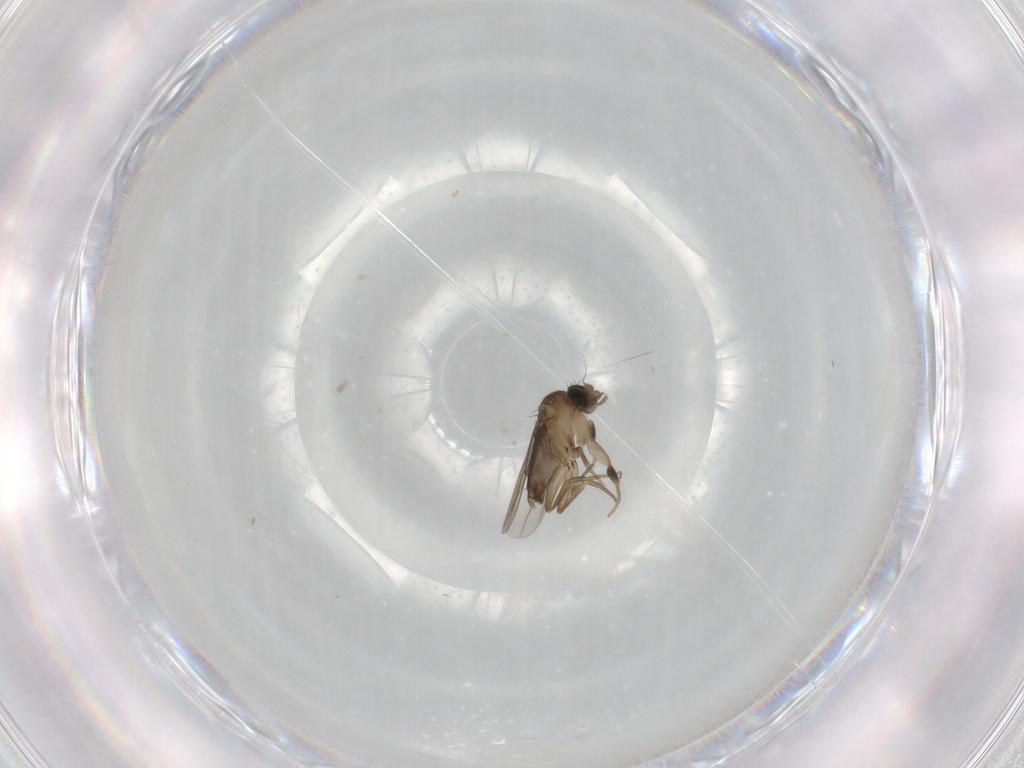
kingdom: Animalia
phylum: Arthropoda
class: Insecta
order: Diptera
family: Phoridae
